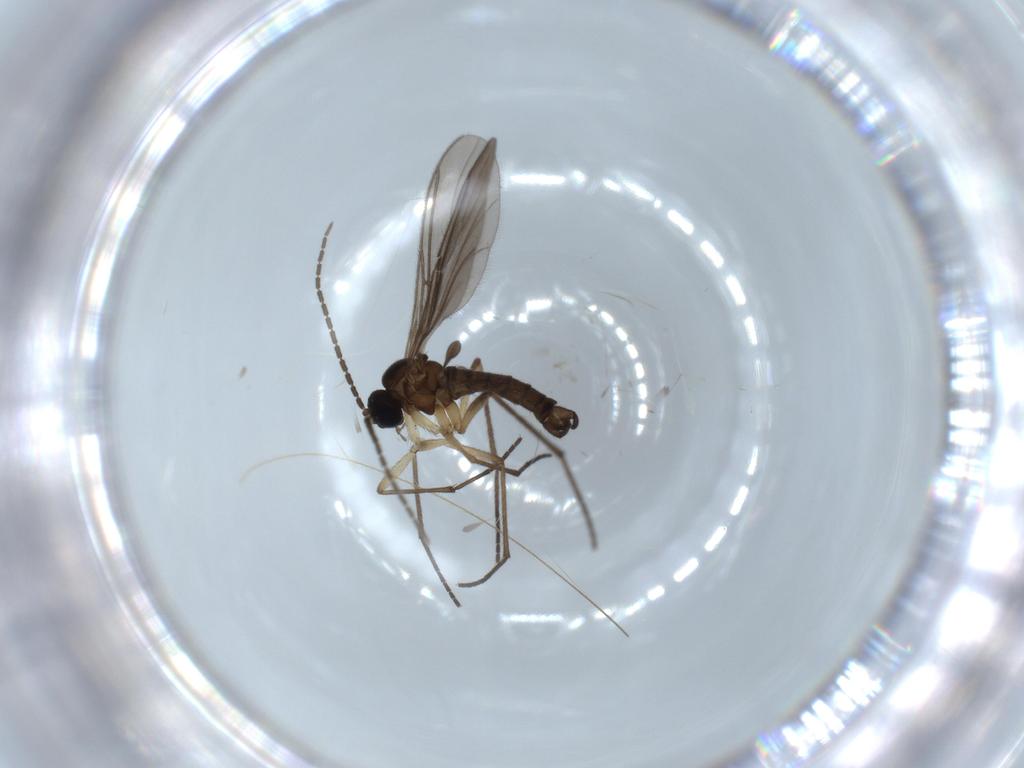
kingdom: Animalia
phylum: Arthropoda
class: Insecta
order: Diptera
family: Sciaridae
